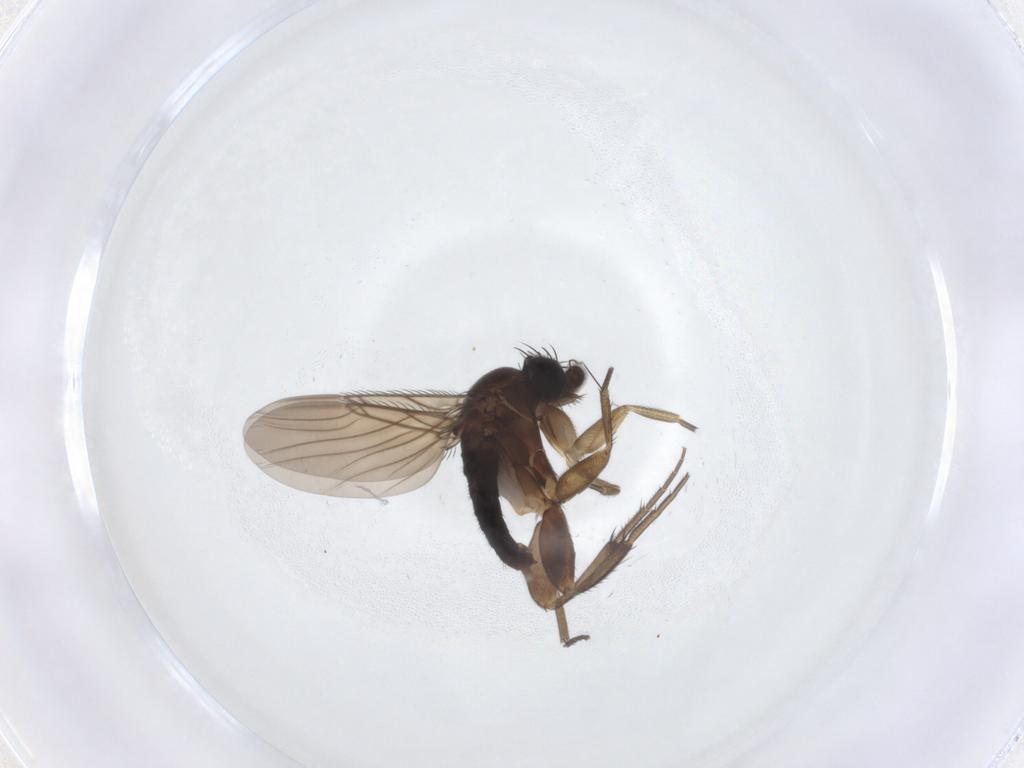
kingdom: Animalia
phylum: Arthropoda
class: Insecta
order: Diptera
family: Phoridae
